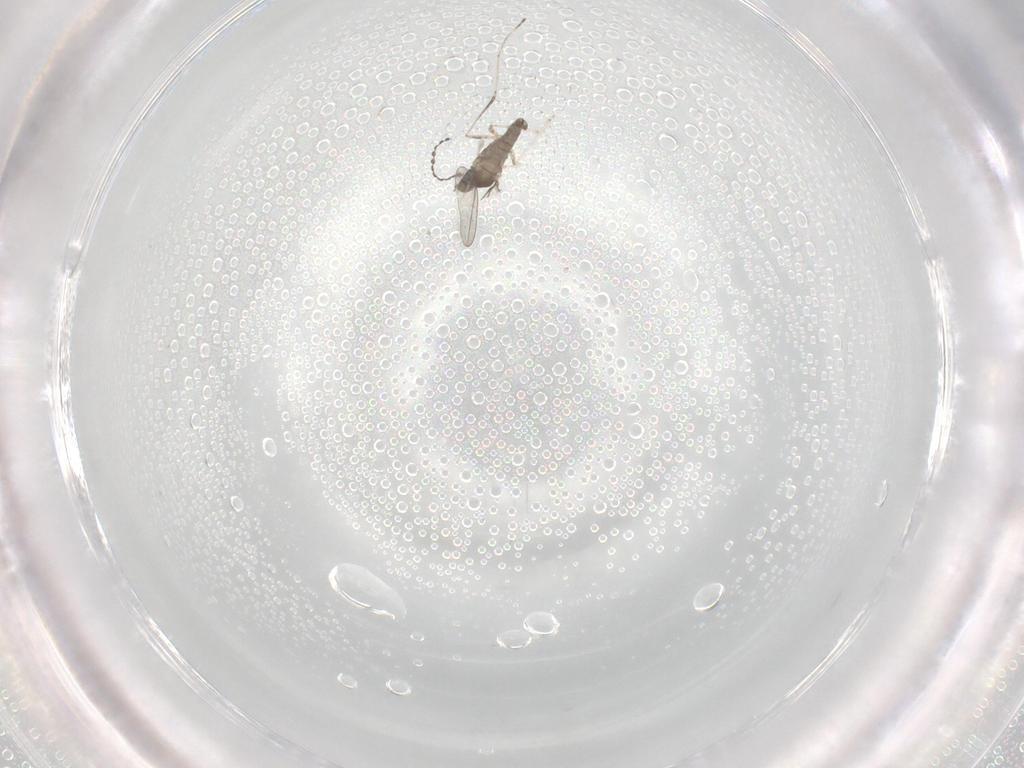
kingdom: Animalia
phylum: Arthropoda
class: Insecta
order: Diptera
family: Cecidomyiidae
